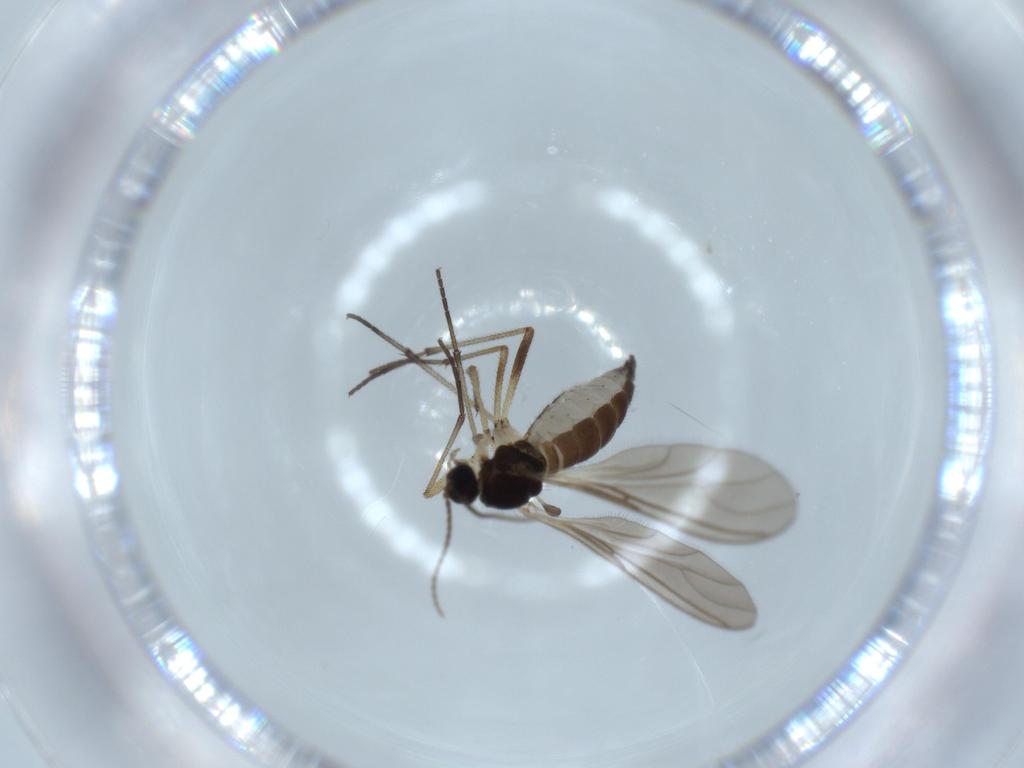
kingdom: Animalia
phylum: Arthropoda
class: Insecta
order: Diptera
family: Sciaridae
